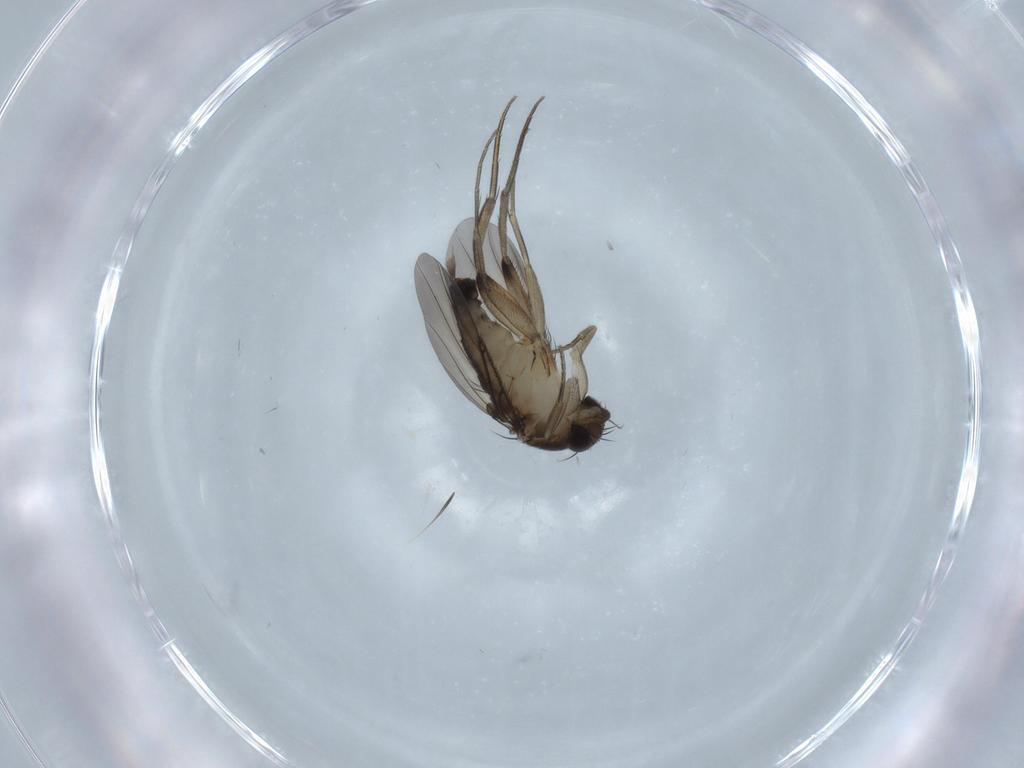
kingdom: Animalia
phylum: Arthropoda
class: Insecta
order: Diptera
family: Phoridae
